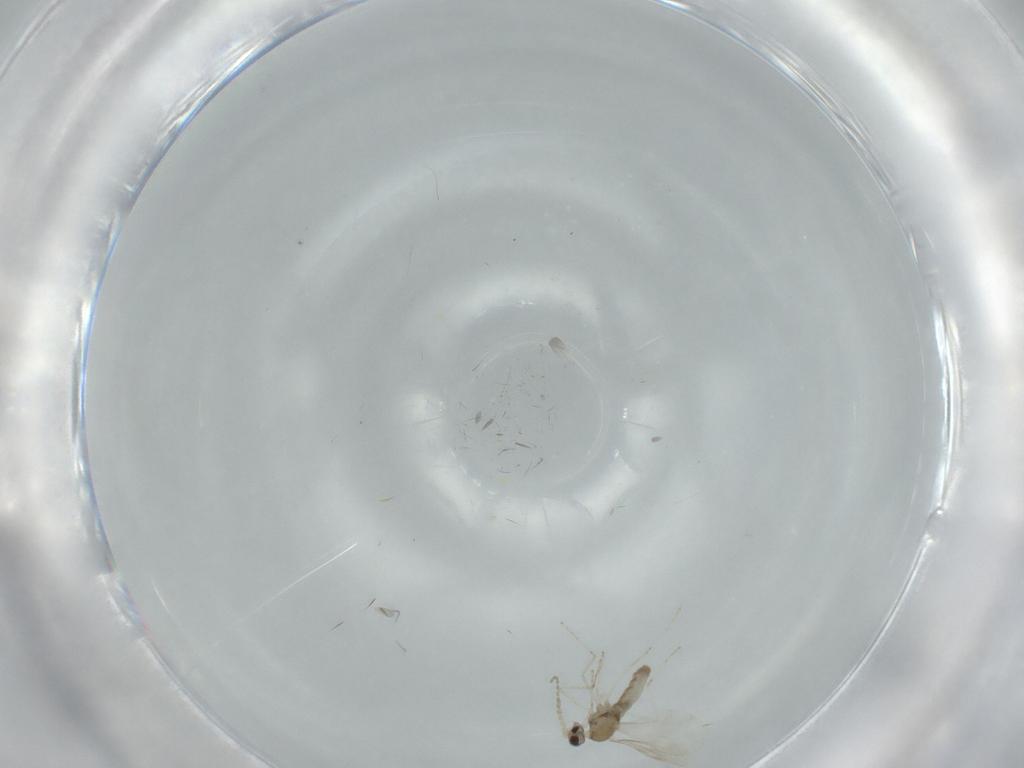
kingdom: Animalia
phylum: Arthropoda
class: Insecta
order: Diptera
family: Cecidomyiidae
